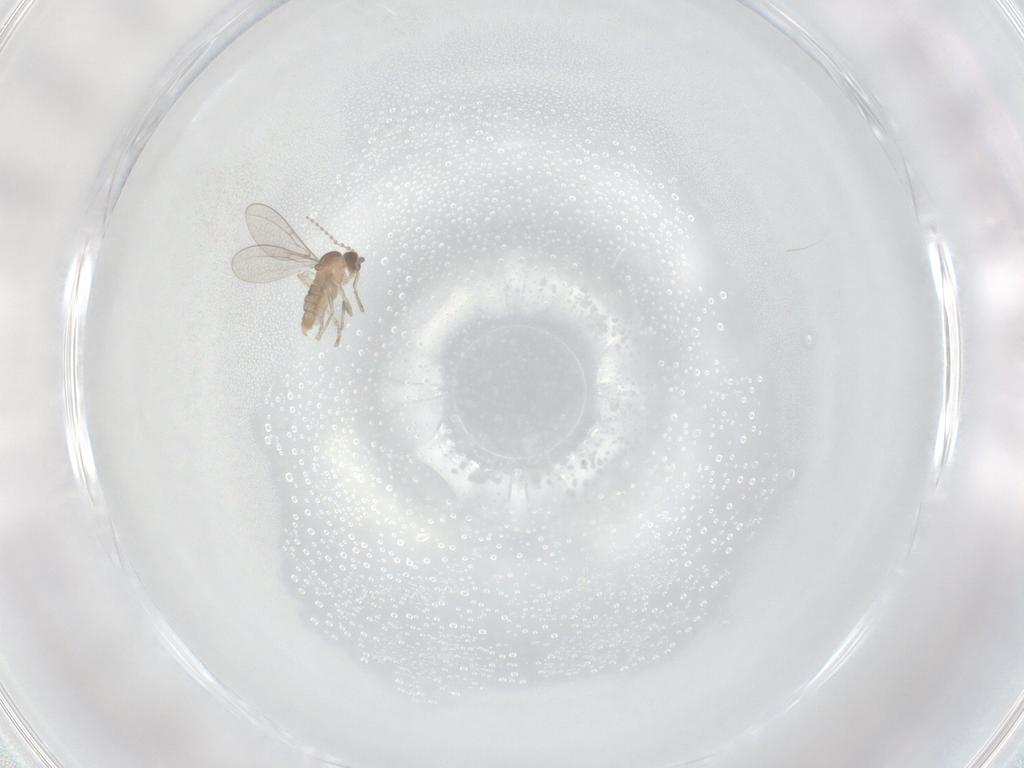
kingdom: Animalia
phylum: Arthropoda
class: Insecta
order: Diptera
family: Cecidomyiidae
